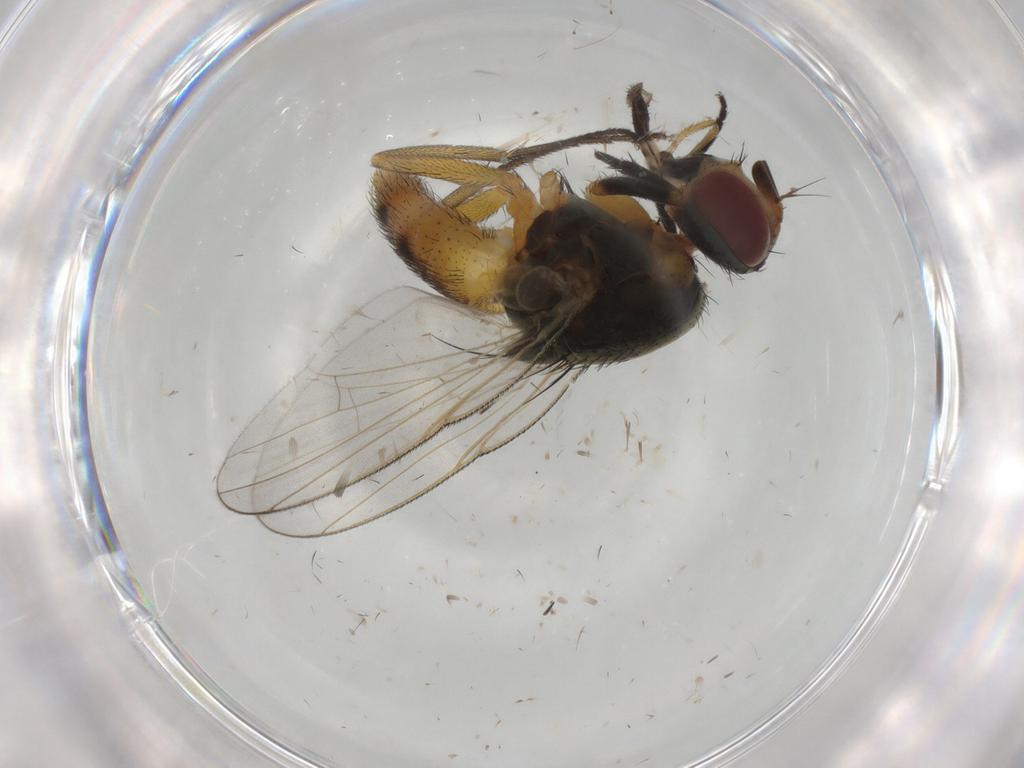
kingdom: Animalia
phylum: Arthropoda
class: Insecta
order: Diptera
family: Muscidae
